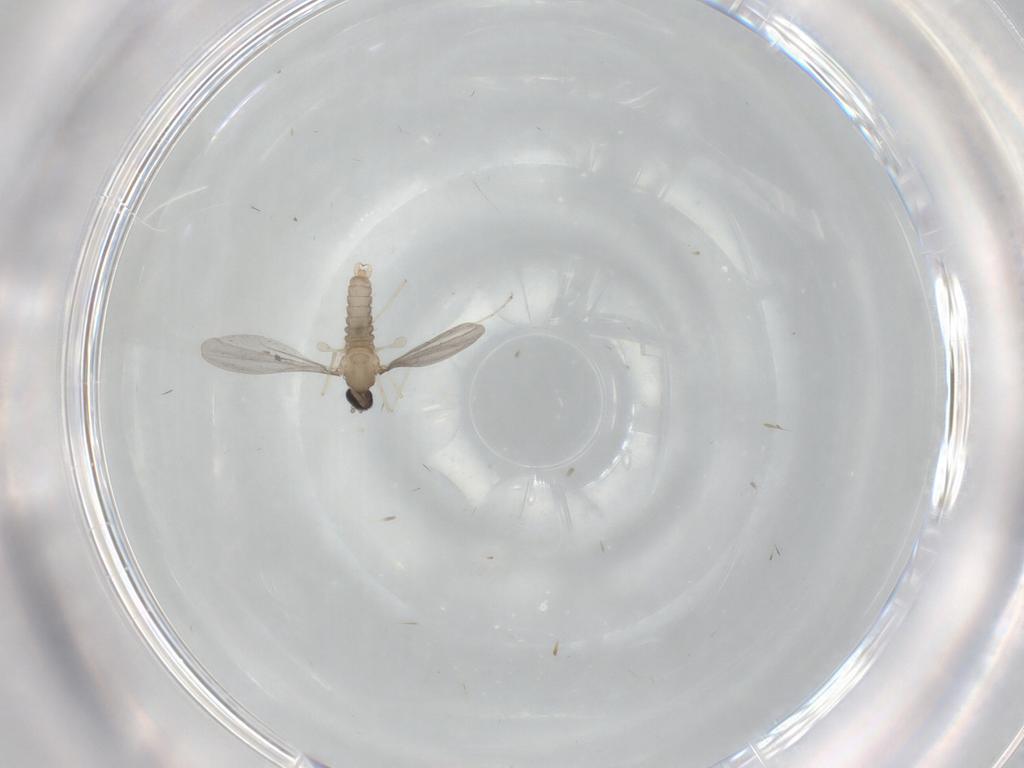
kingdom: Animalia
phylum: Arthropoda
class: Insecta
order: Diptera
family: Cecidomyiidae
